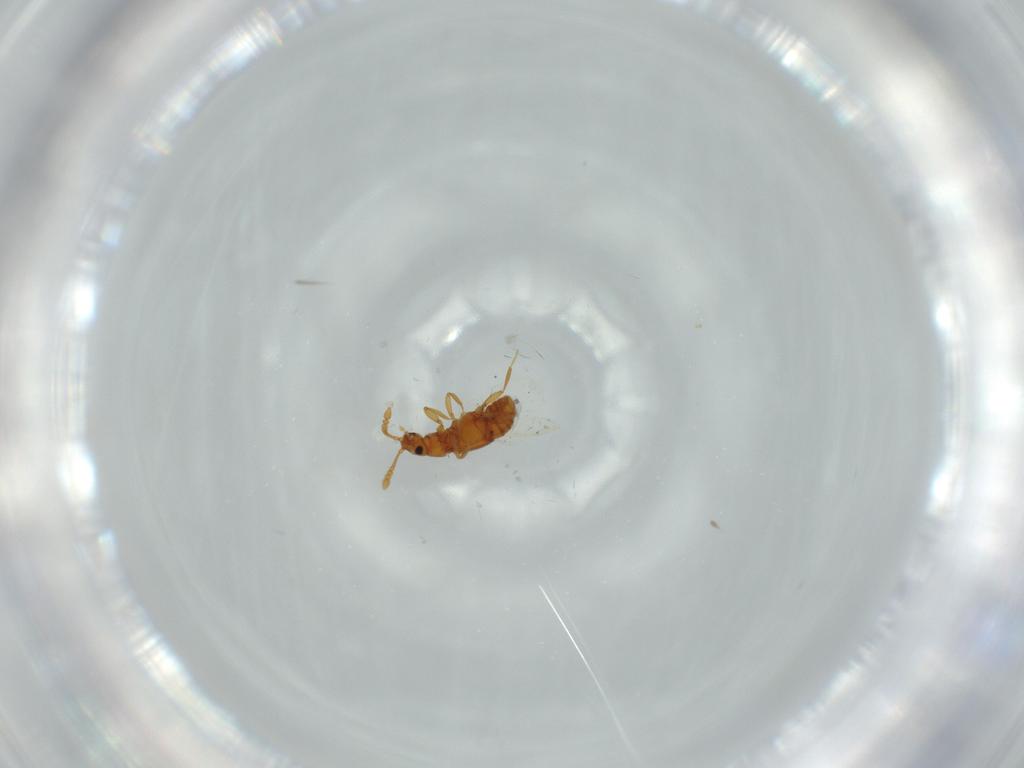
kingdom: Animalia
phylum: Arthropoda
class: Insecta
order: Coleoptera
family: Staphylinidae
